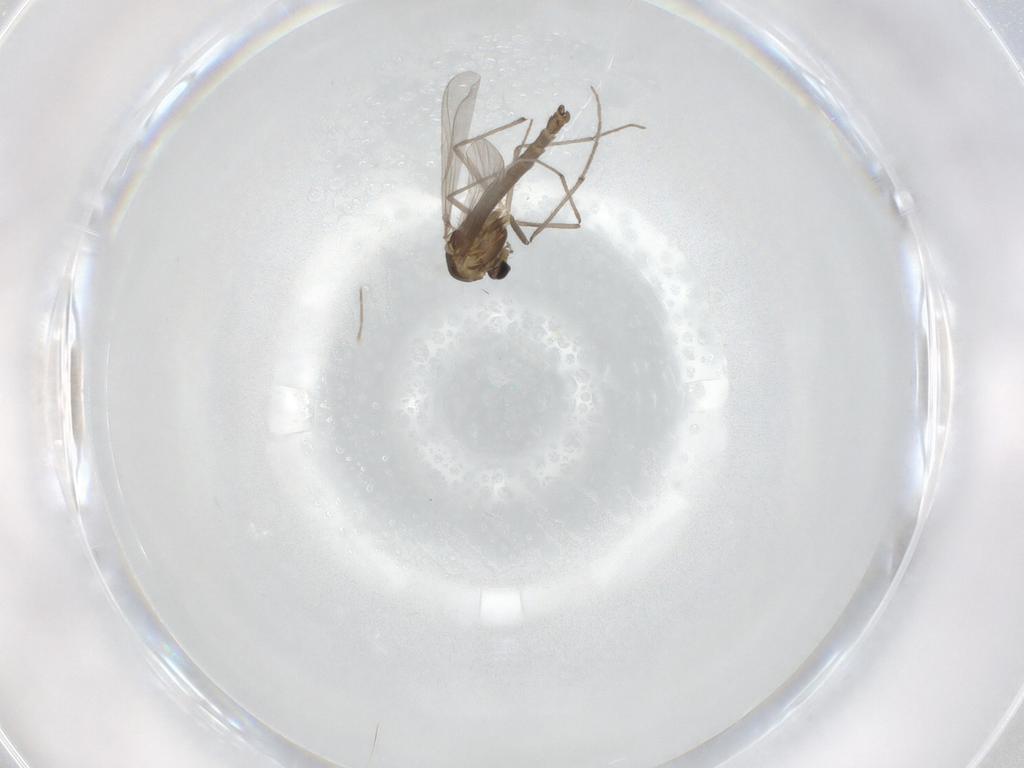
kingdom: Animalia
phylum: Arthropoda
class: Insecta
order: Diptera
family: Chironomidae
